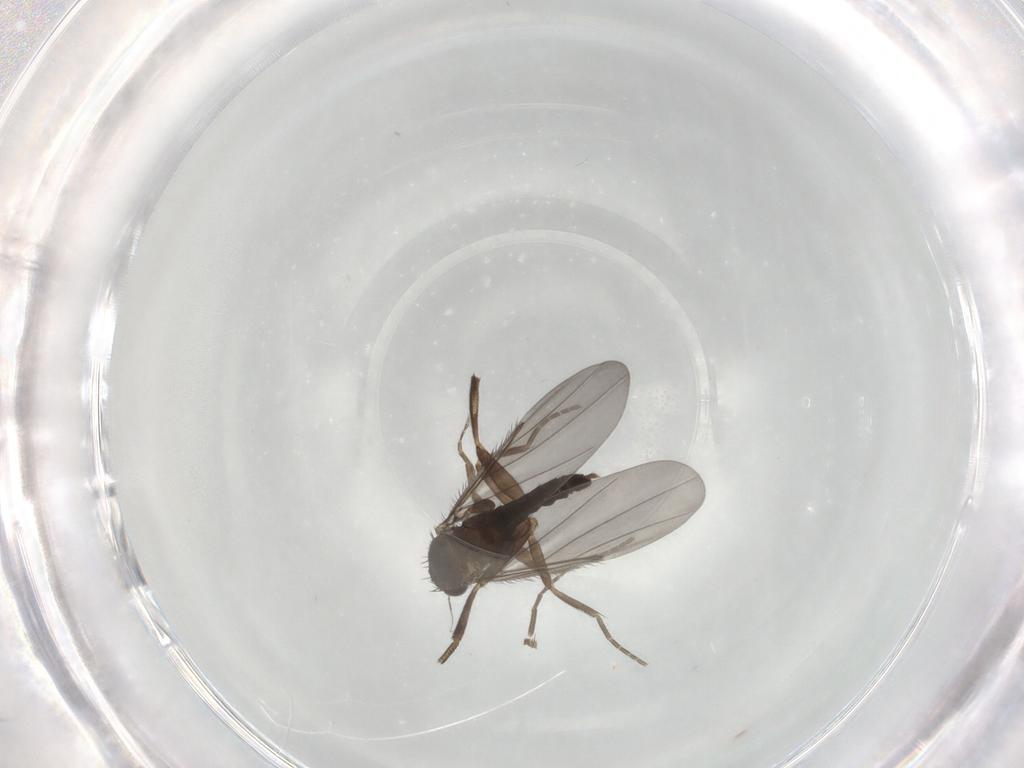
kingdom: Animalia
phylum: Arthropoda
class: Insecta
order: Diptera
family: Phoridae
